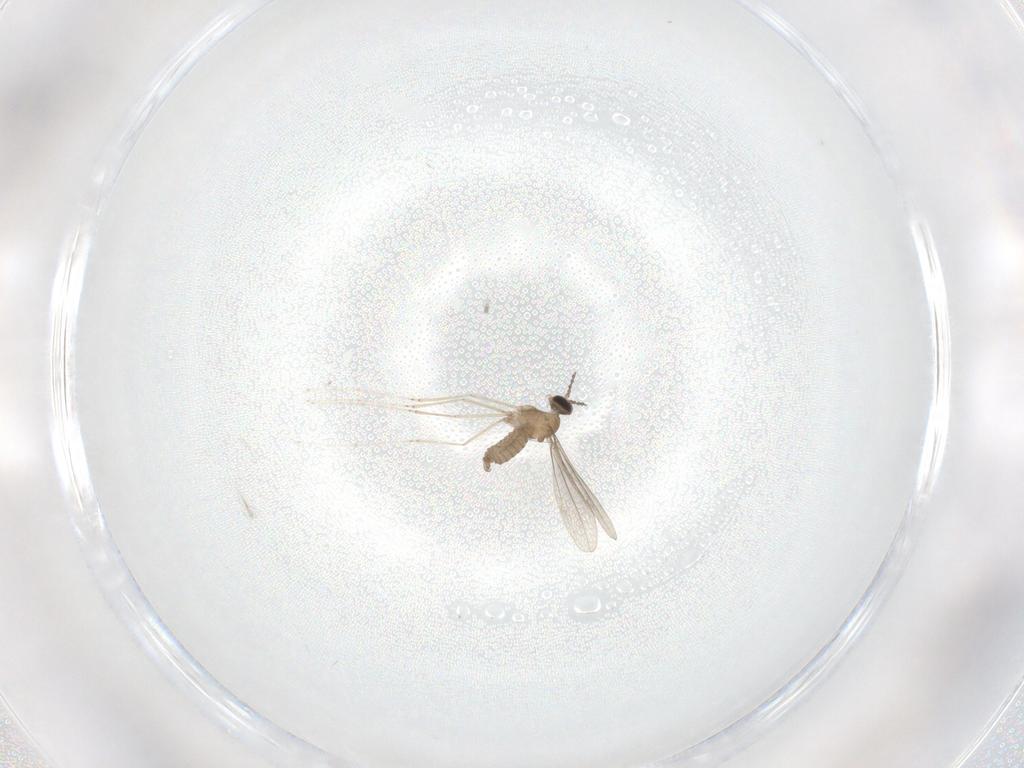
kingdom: Animalia
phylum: Arthropoda
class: Insecta
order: Diptera
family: Cecidomyiidae
